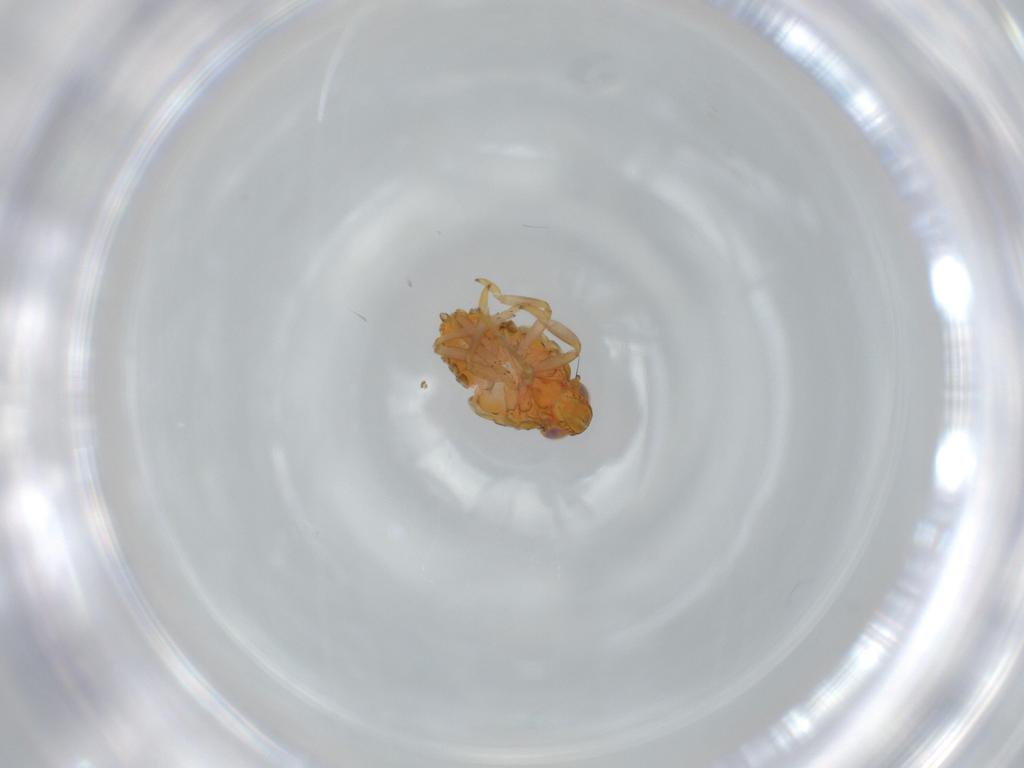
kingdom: Animalia
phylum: Arthropoda
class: Insecta
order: Hemiptera
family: Issidae
